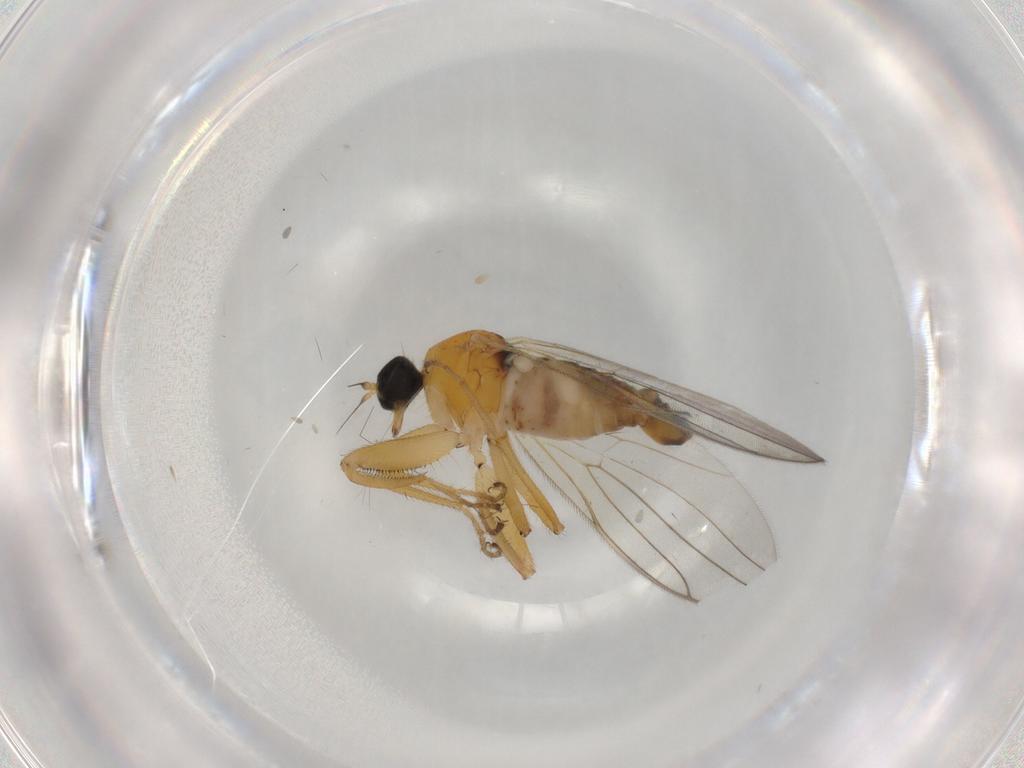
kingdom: Animalia
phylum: Arthropoda
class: Insecta
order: Diptera
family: Hybotidae
